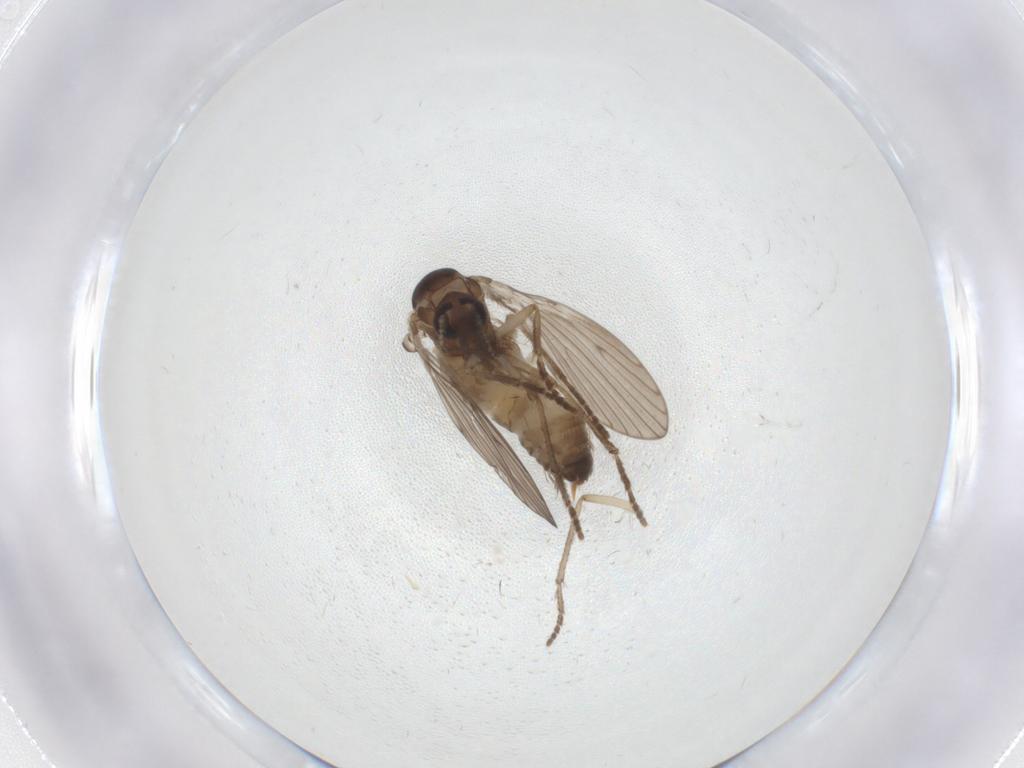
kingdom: Animalia
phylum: Arthropoda
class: Insecta
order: Diptera
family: Psychodidae
